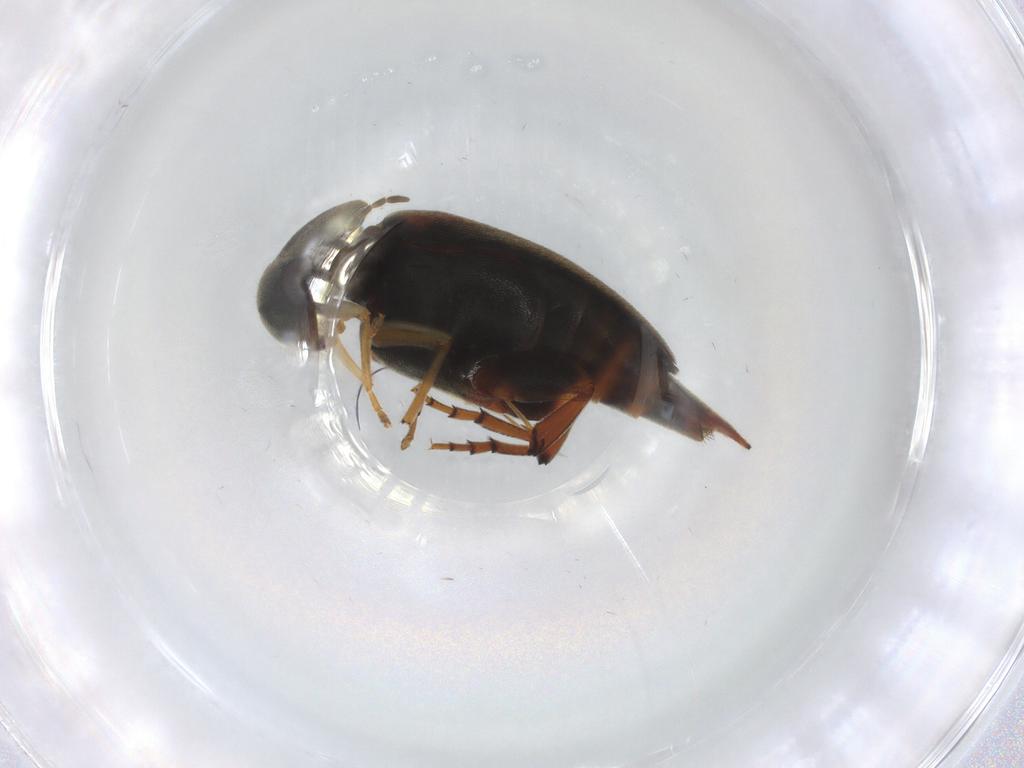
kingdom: Animalia
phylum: Arthropoda
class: Insecta
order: Coleoptera
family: Mordellidae
